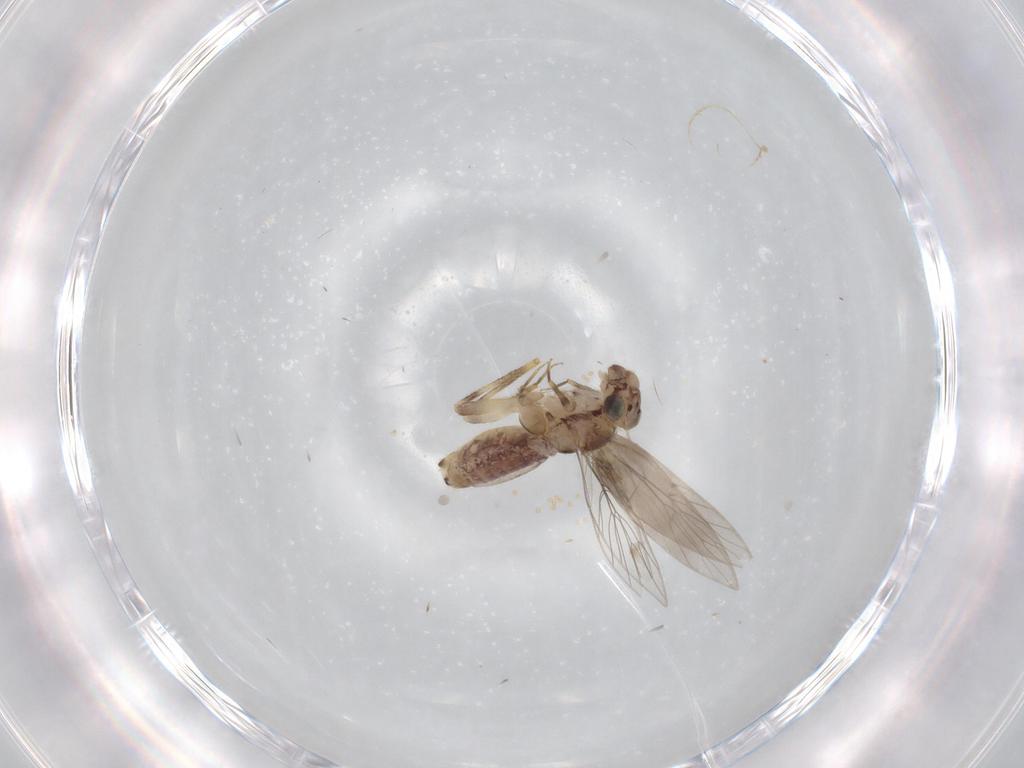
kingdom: Animalia
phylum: Arthropoda
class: Insecta
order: Psocodea
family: Lepidopsocidae
